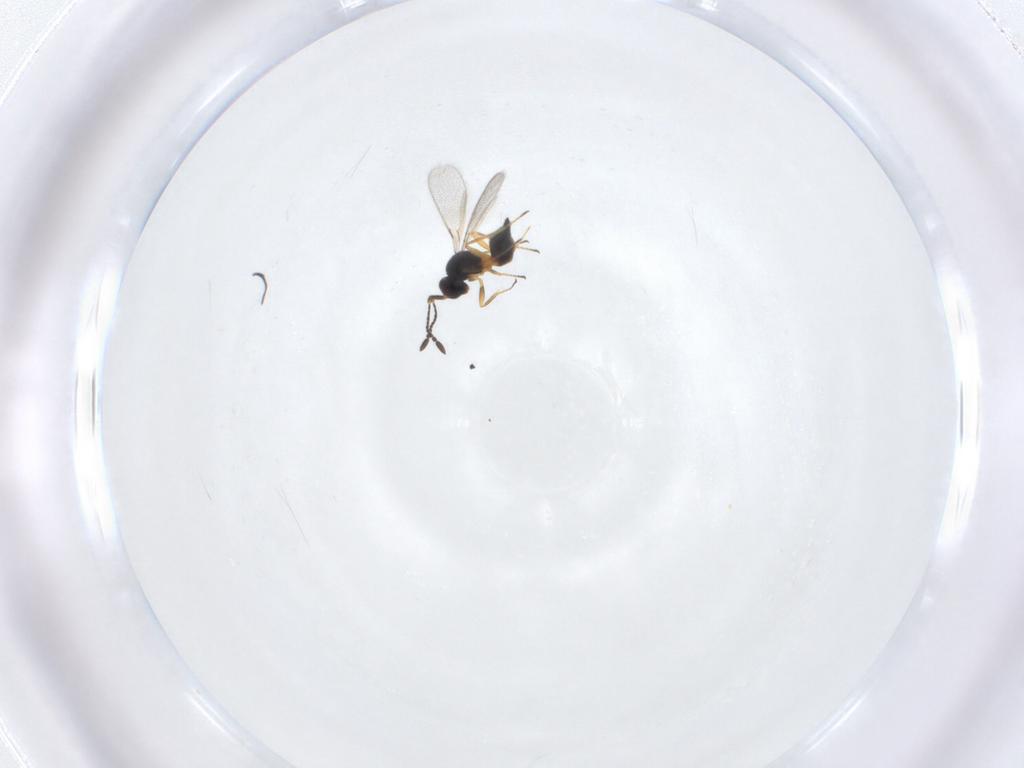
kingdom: Animalia
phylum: Arthropoda
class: Insecta
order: Hymenoptera
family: Mymaridae
